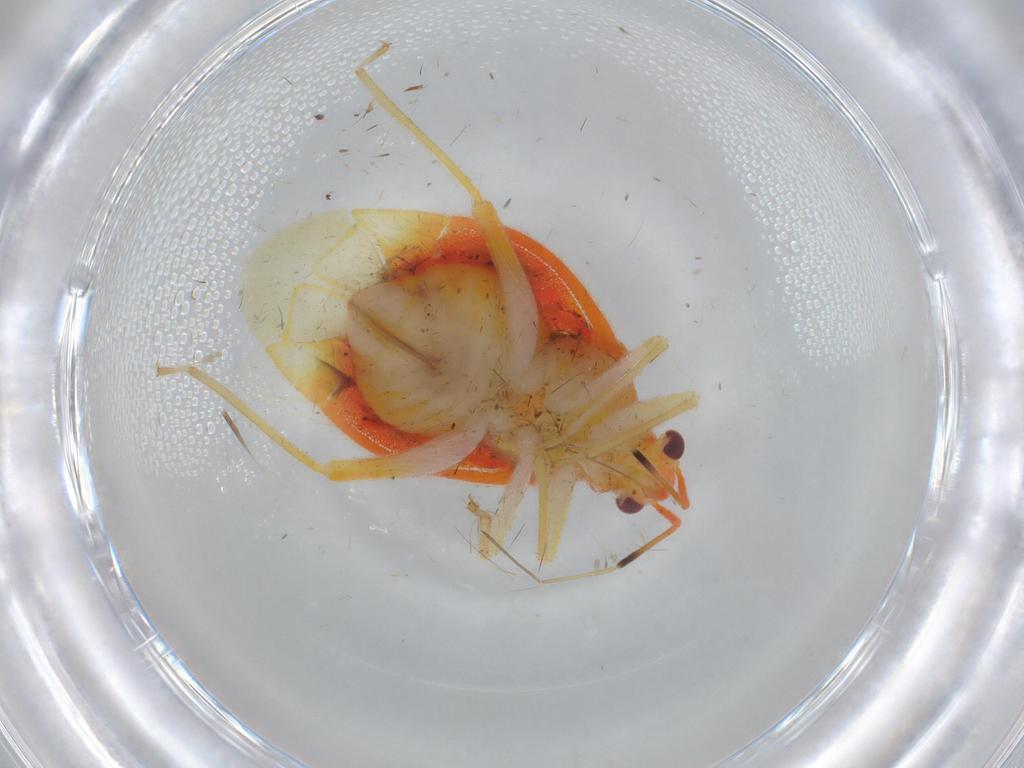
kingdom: Animalia
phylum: Arthropoda
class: Insecta
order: Hemiptera
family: Miridae
